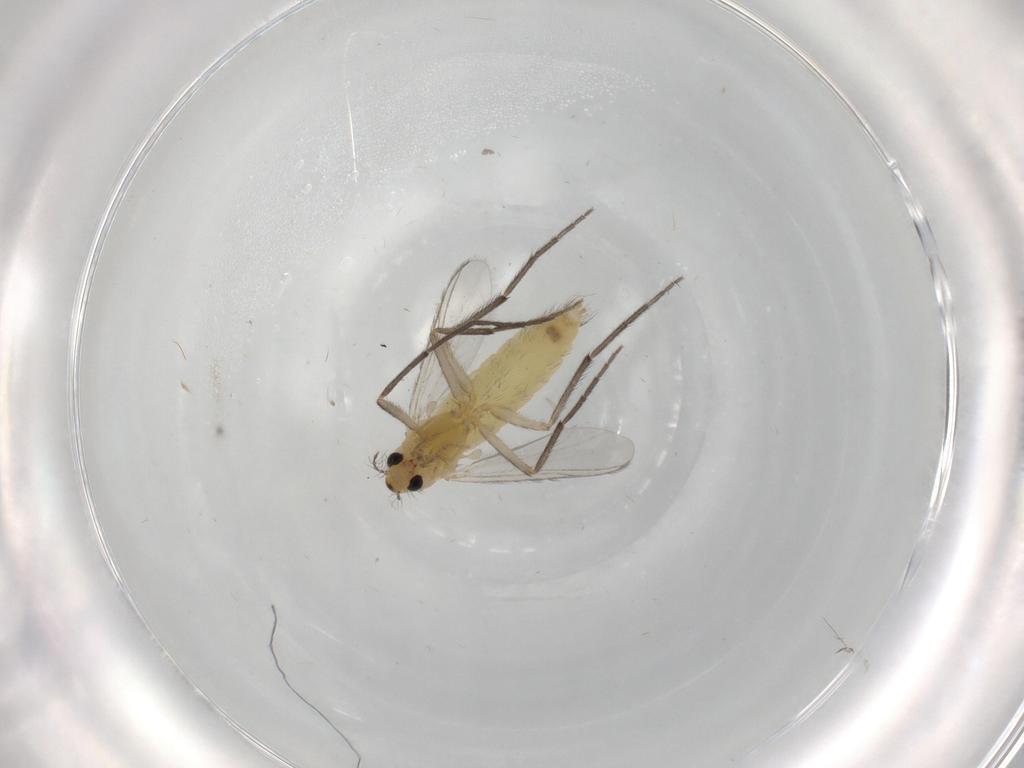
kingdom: Animalia
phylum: Arthropoda
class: Insecta
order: Diptera
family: Chironomidae
